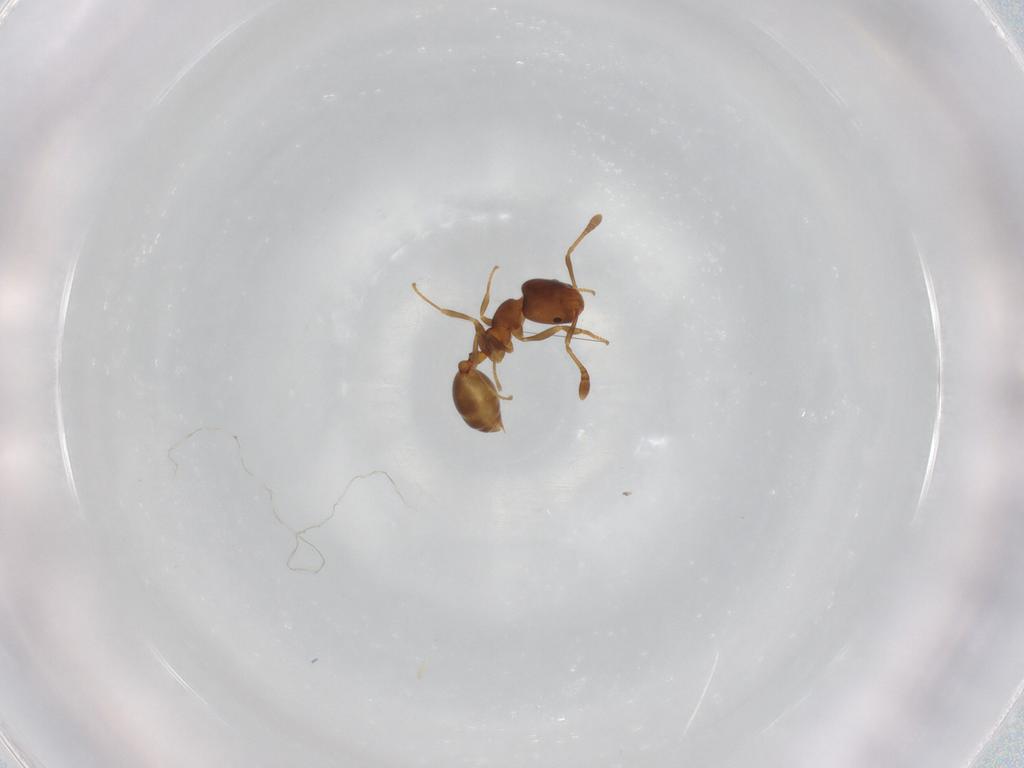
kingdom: Animalia
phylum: Arthropoda
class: Insecta
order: Hymenoptera
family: Formicidae
